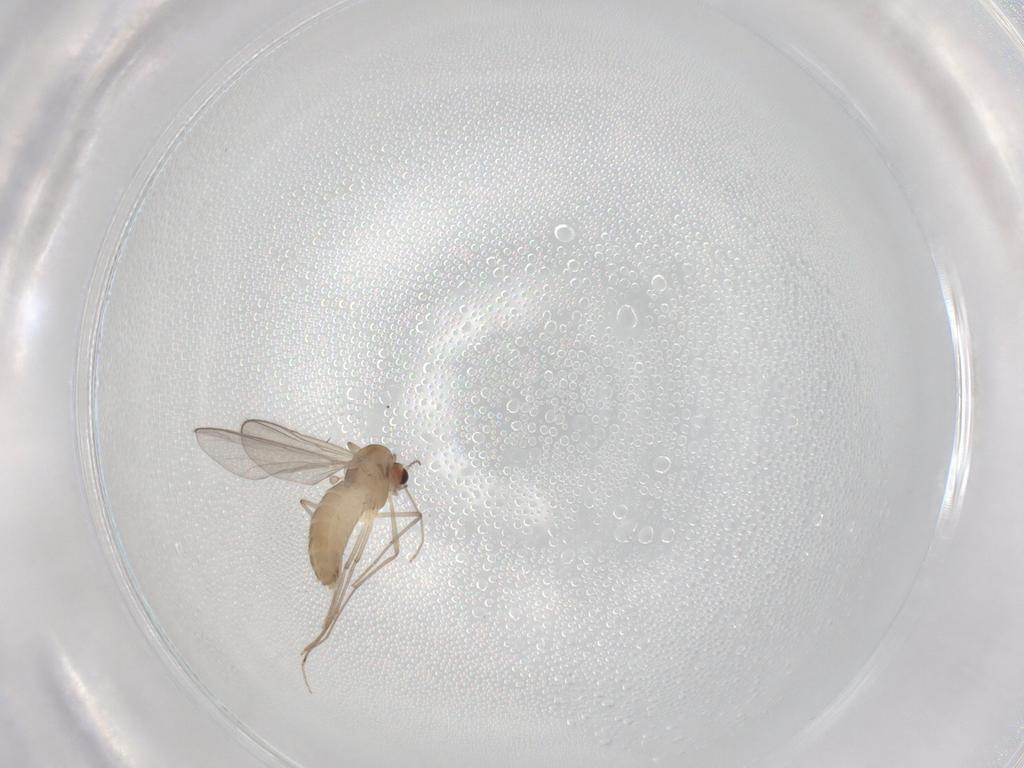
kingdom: Animalia
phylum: Arthropoda
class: Insecta
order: Diptera
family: Chironomidae
